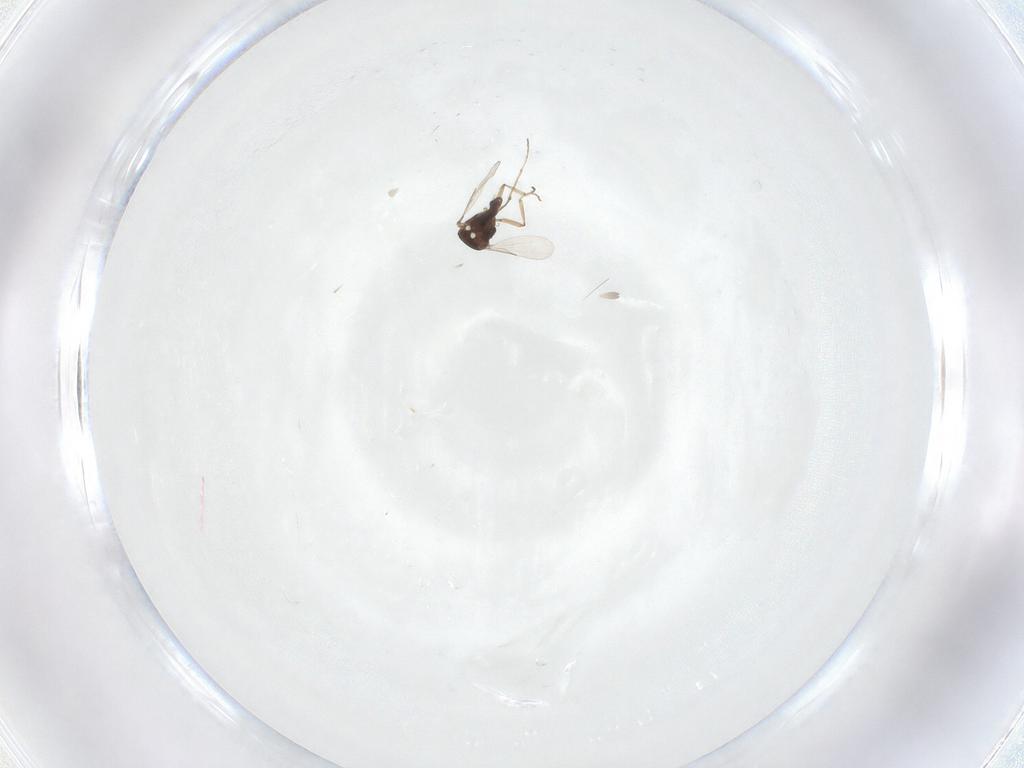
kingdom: Animalia
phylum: Arthropoda
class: Insecta
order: Diptera
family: Ceratopogonidae
